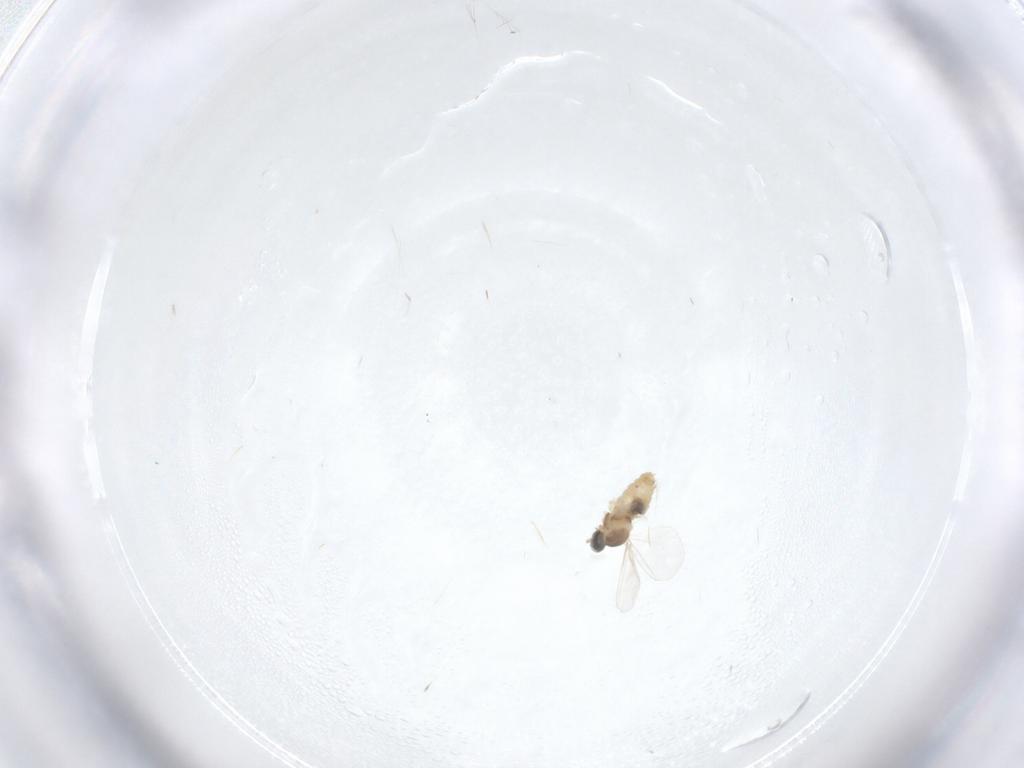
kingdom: Animalia
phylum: Arthropoda
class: Insecta
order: Diptera
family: Cecidomyiidae
